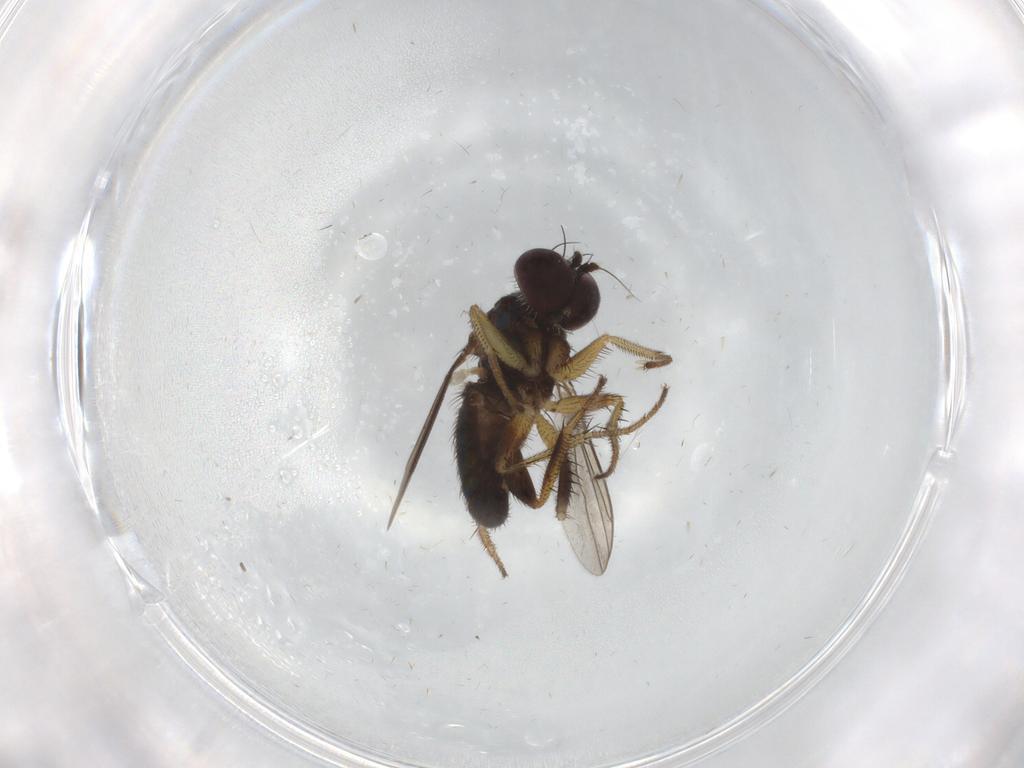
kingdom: Animalia
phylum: Arthropoda
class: Insecta
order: Diptera
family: Dolichopodidae
